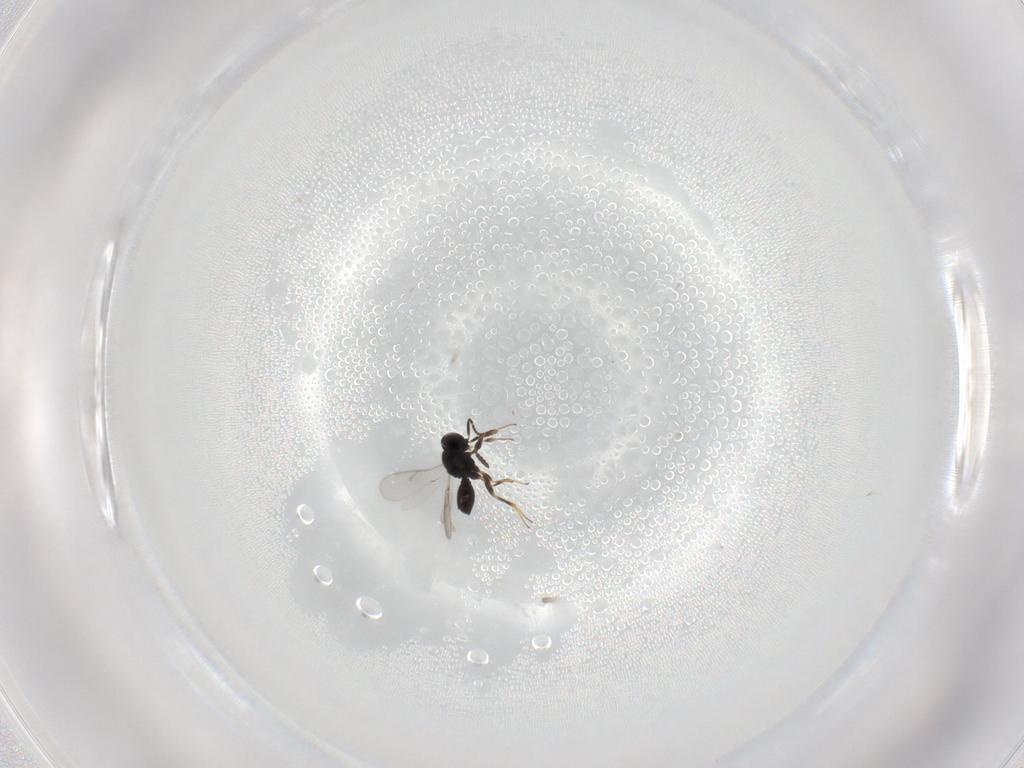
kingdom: Animalia
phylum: Arthropoda
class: Insecta
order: Hymenoptera
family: Scelionidae
